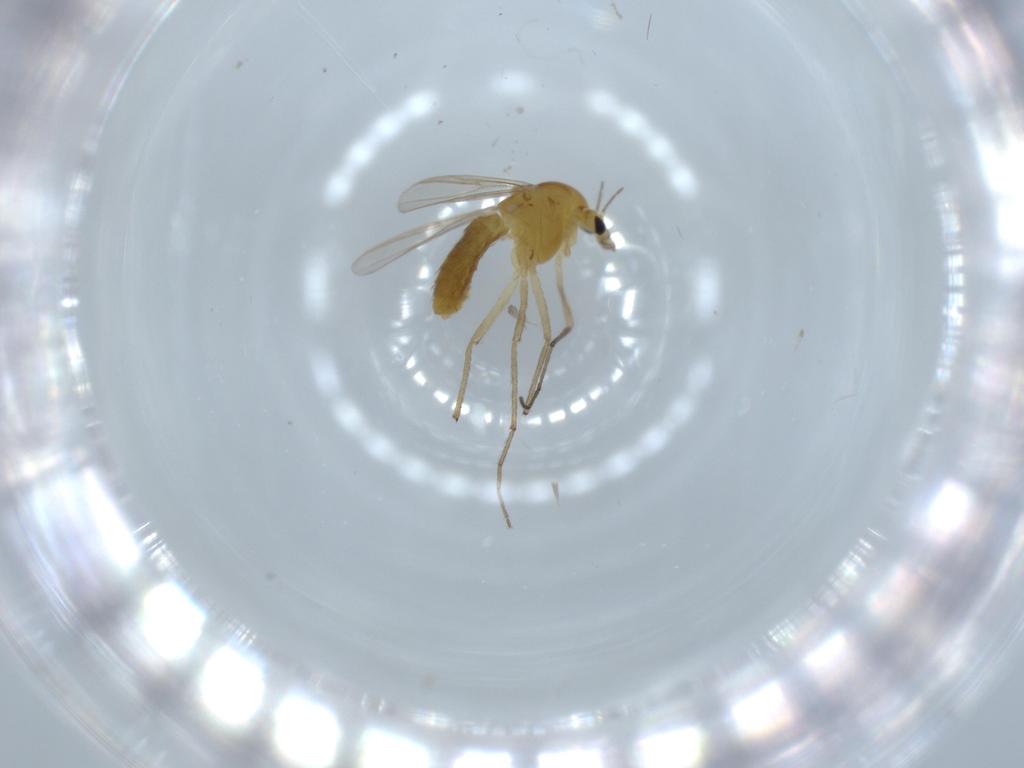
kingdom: Animalia
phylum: Arthropoda
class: Insecta
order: Diptera
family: Chironomidae
